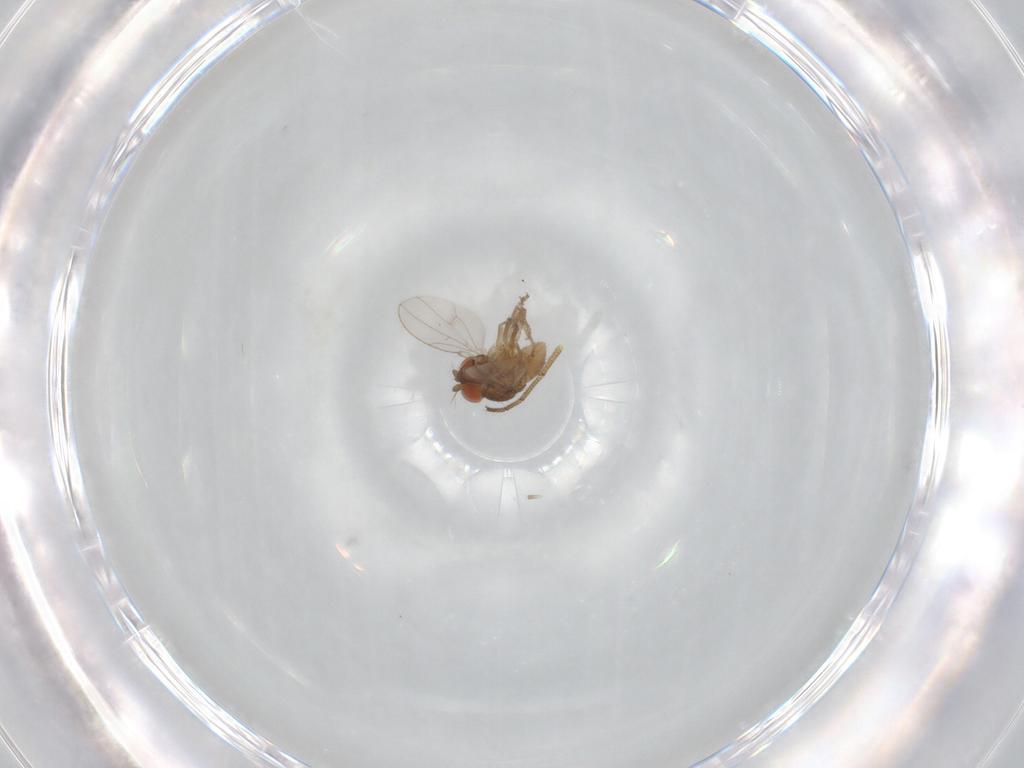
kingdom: Animalia
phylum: Arthropoda
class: Insecta
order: Diptera
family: Ephydridae
